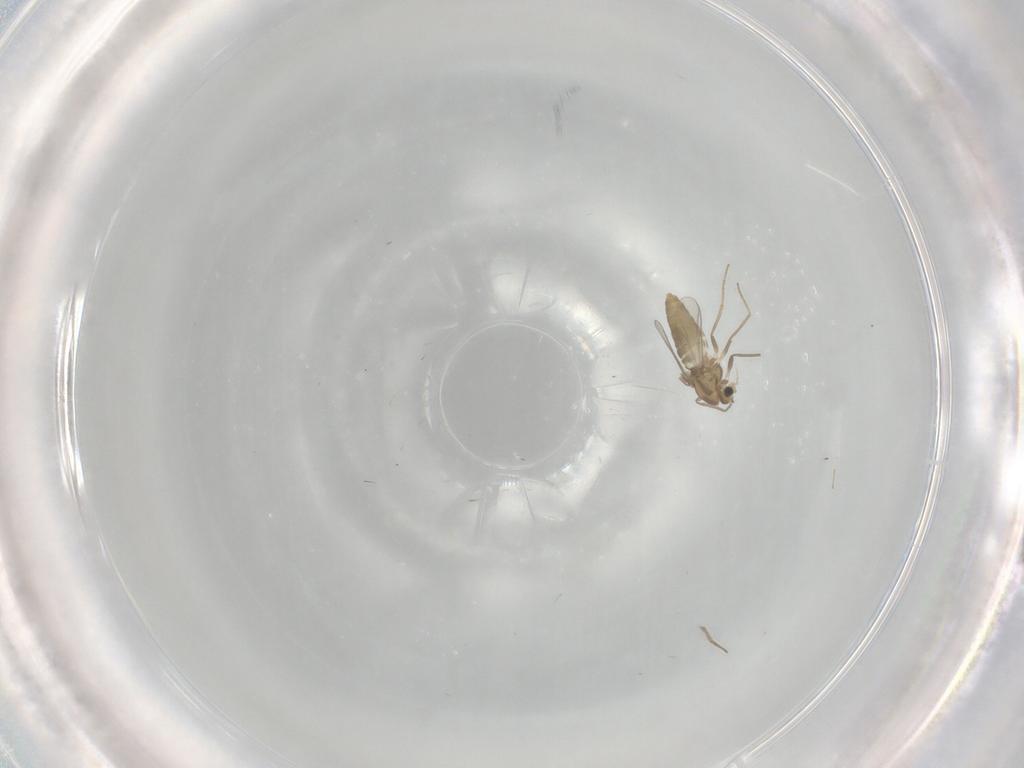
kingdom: Animalia
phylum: Arthropoda
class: Insecta
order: Diptera
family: Chironomidae
